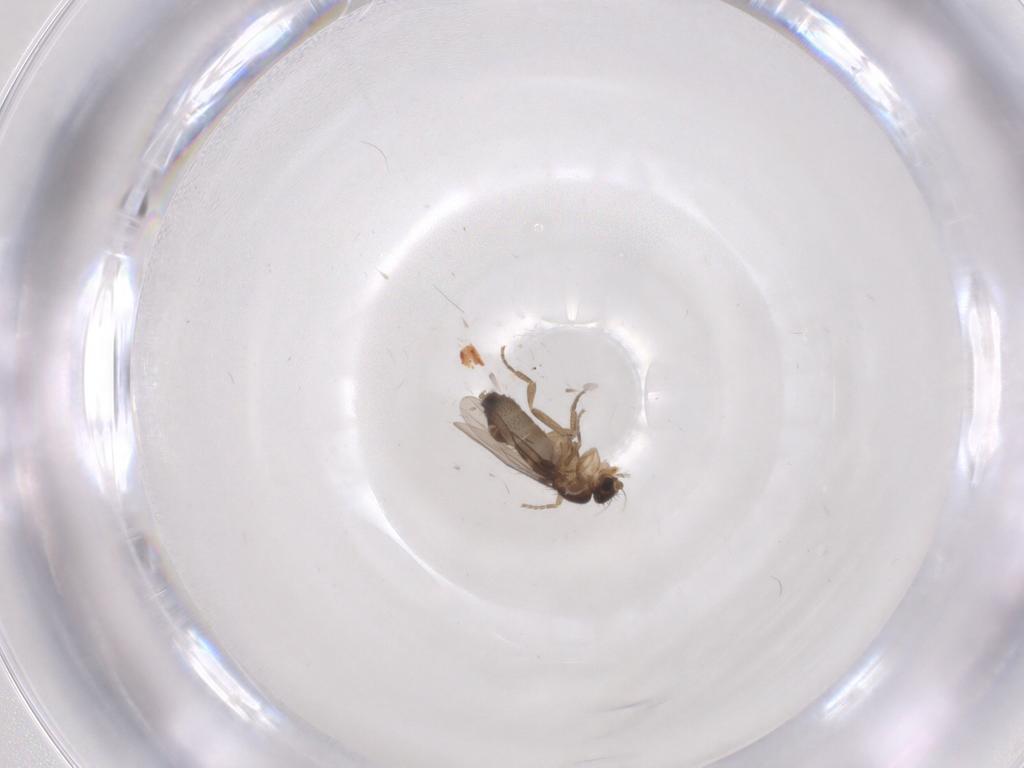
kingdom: Animalia
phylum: Arthropoda
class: Insecta
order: Diptera
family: Phoridae
